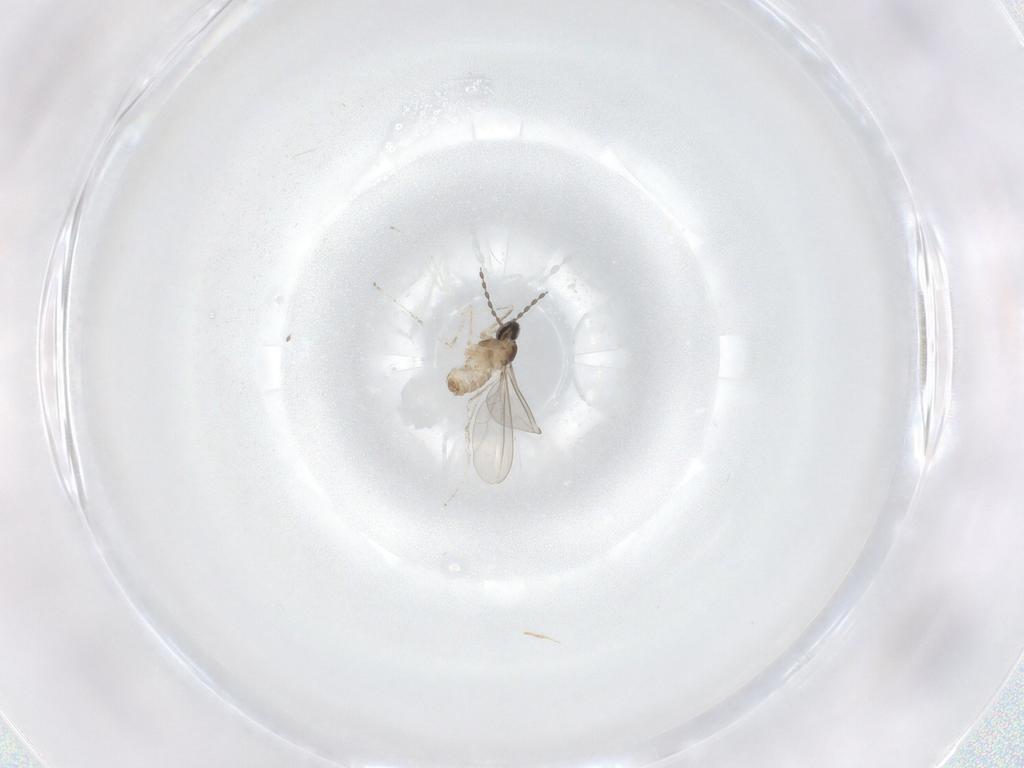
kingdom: Animalia
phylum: Arthropoda
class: Insecta
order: Diptera
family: Cecidomyiidae
